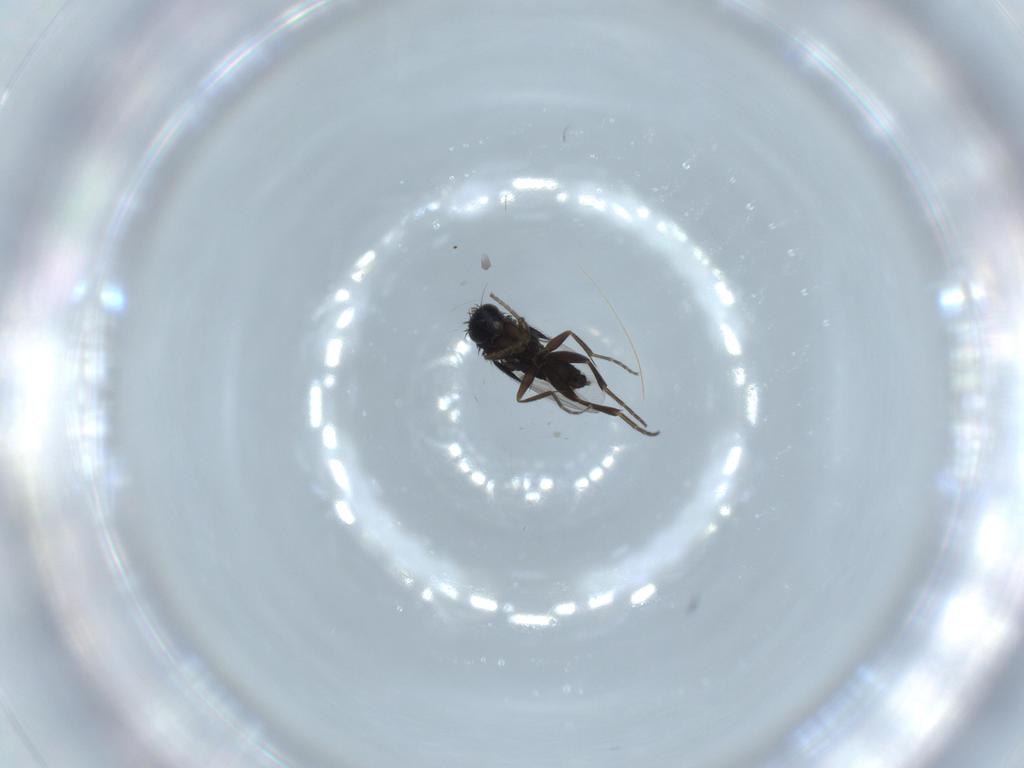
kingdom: Animalia
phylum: Arthropoda
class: Insecta
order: Diptera
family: Phoridae
